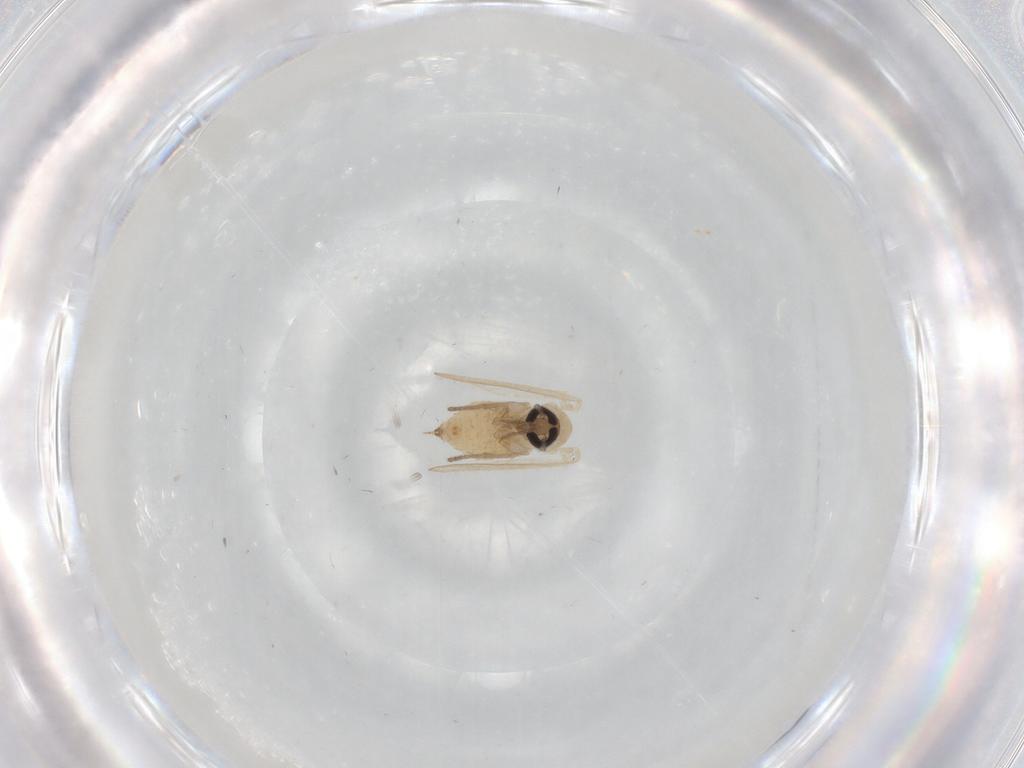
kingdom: Animalia
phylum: Arthropoda
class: Insecta
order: Diptera
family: Psychodidae
